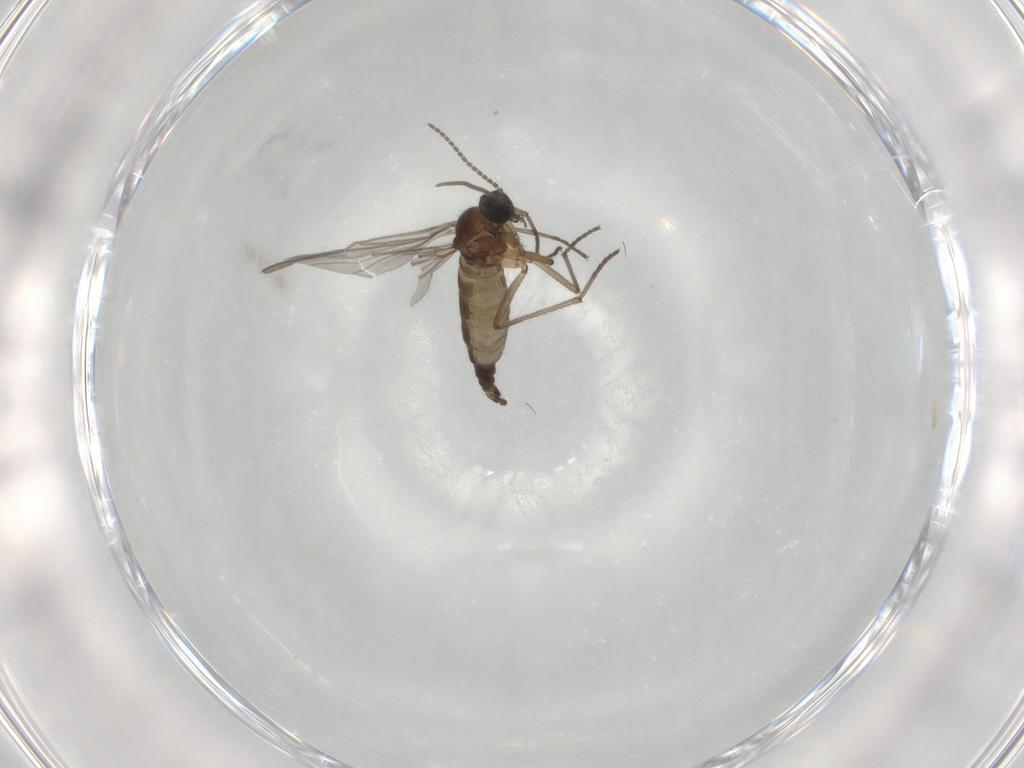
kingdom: Animalia
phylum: Arthropoda
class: Insecta
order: Diptera
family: Sciaridae
